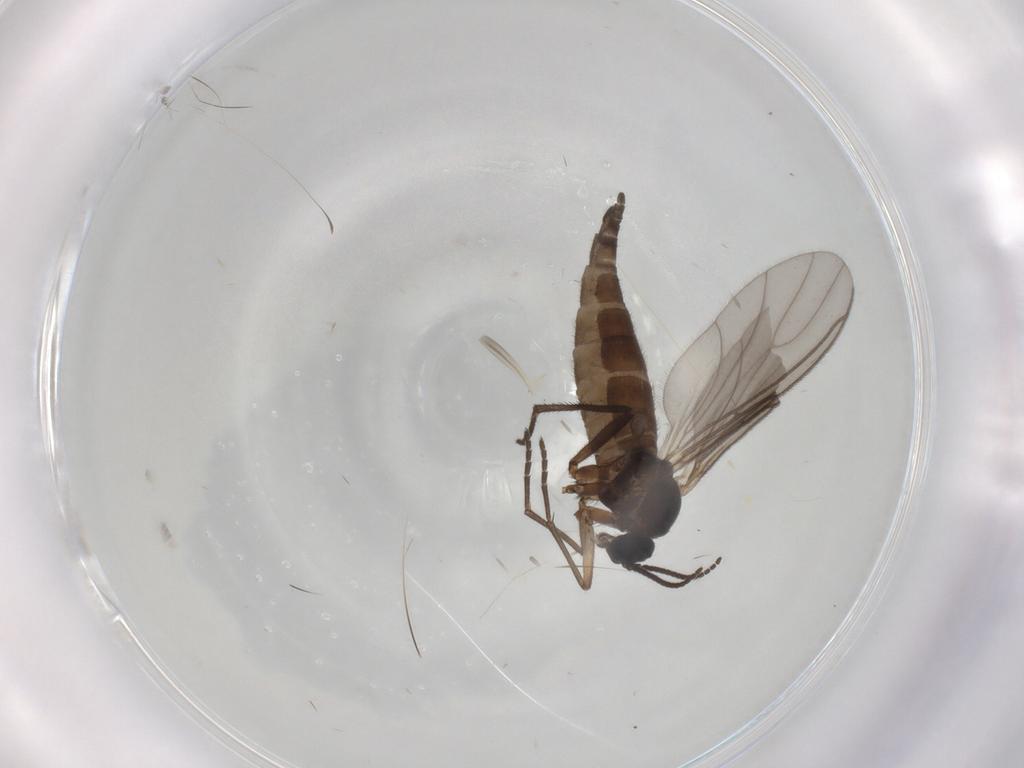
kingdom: Animalia
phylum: Arthropoda
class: Insecta
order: Diptera
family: Sciaridae
